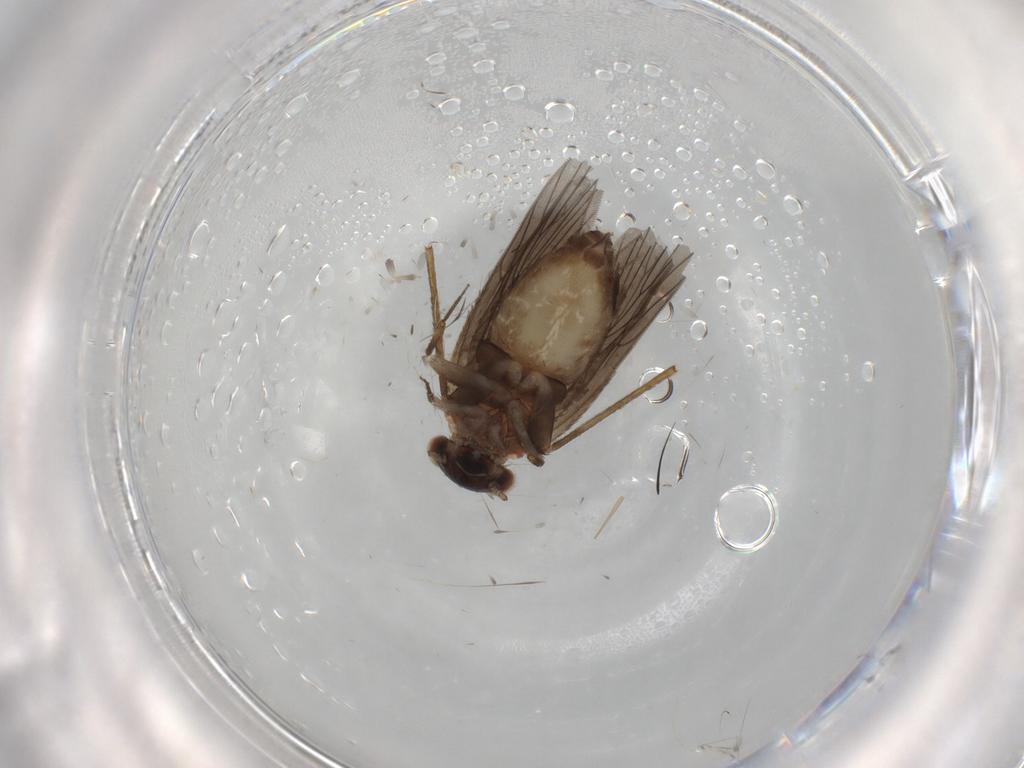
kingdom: Animalia
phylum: Arthropoda
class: Insecta
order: Psocodea
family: Lepidopsocidae
